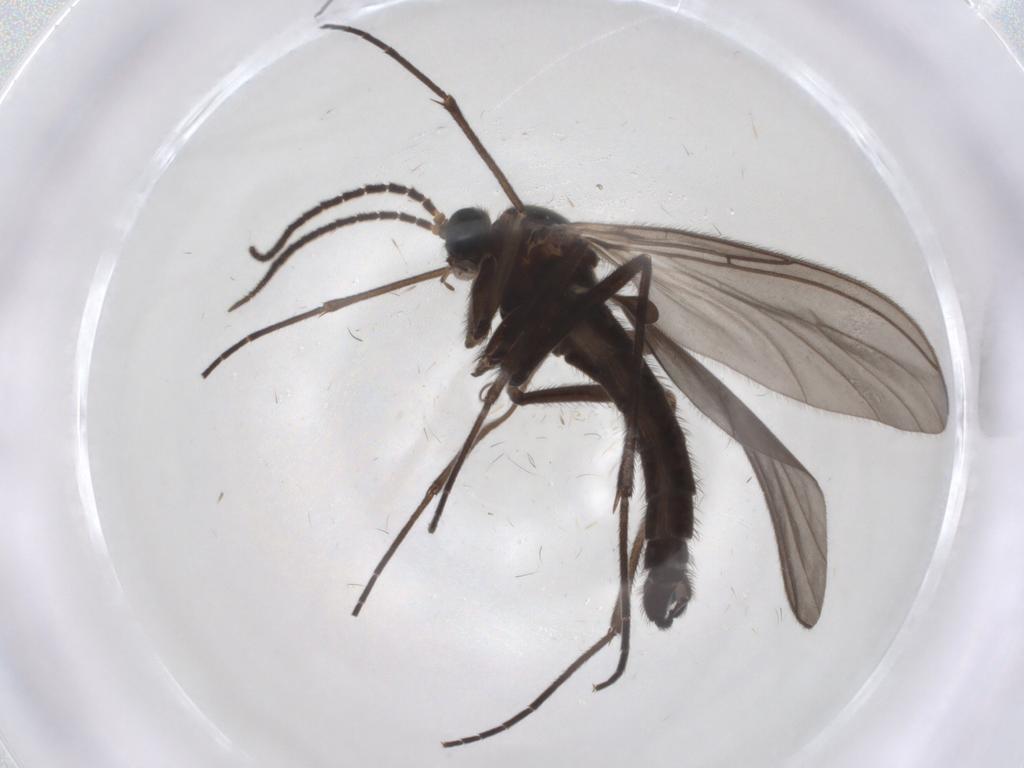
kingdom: Animalia
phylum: Arthropoda
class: Insecta
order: Diptera
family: Sciaridae
